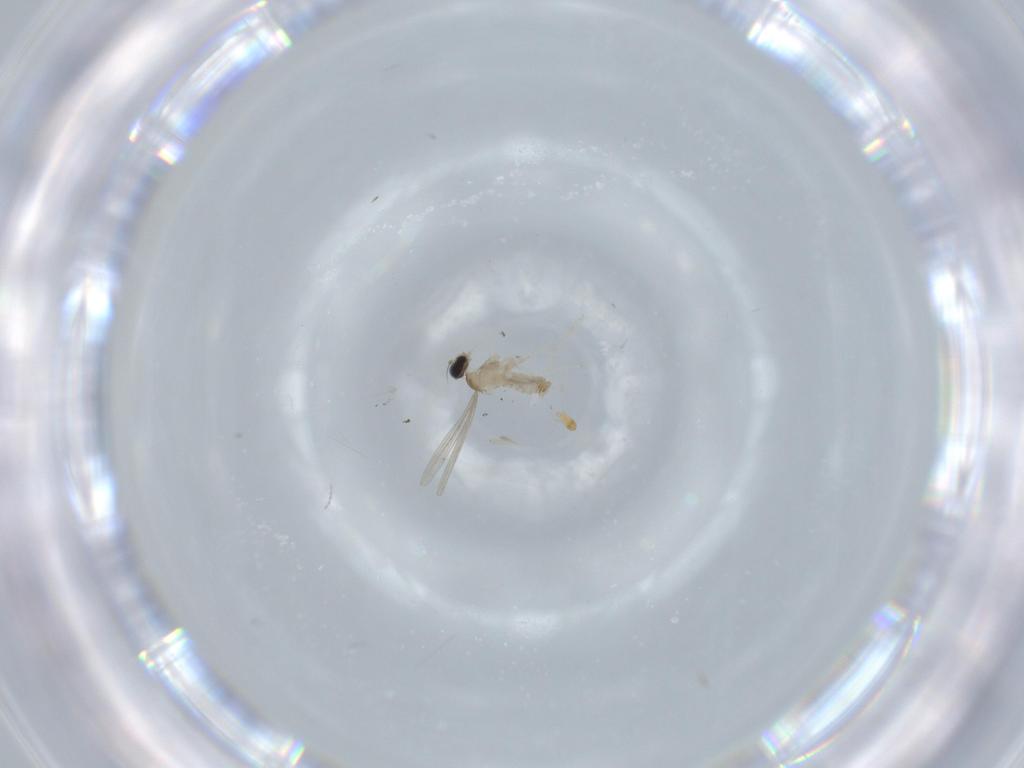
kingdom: Animalia
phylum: Arthropoda
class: Insecta
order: Diptera
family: Cecidomyiidae
